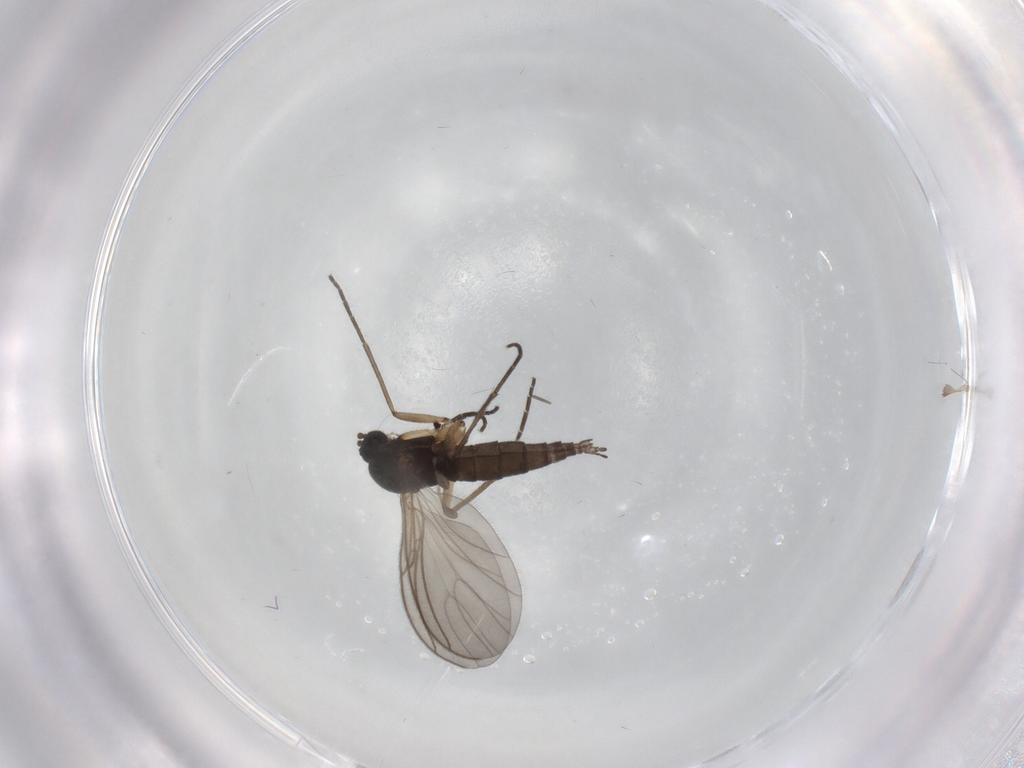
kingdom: Animalia
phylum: Arthropoda
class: Insecta
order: Diptera
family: Sciaridae
